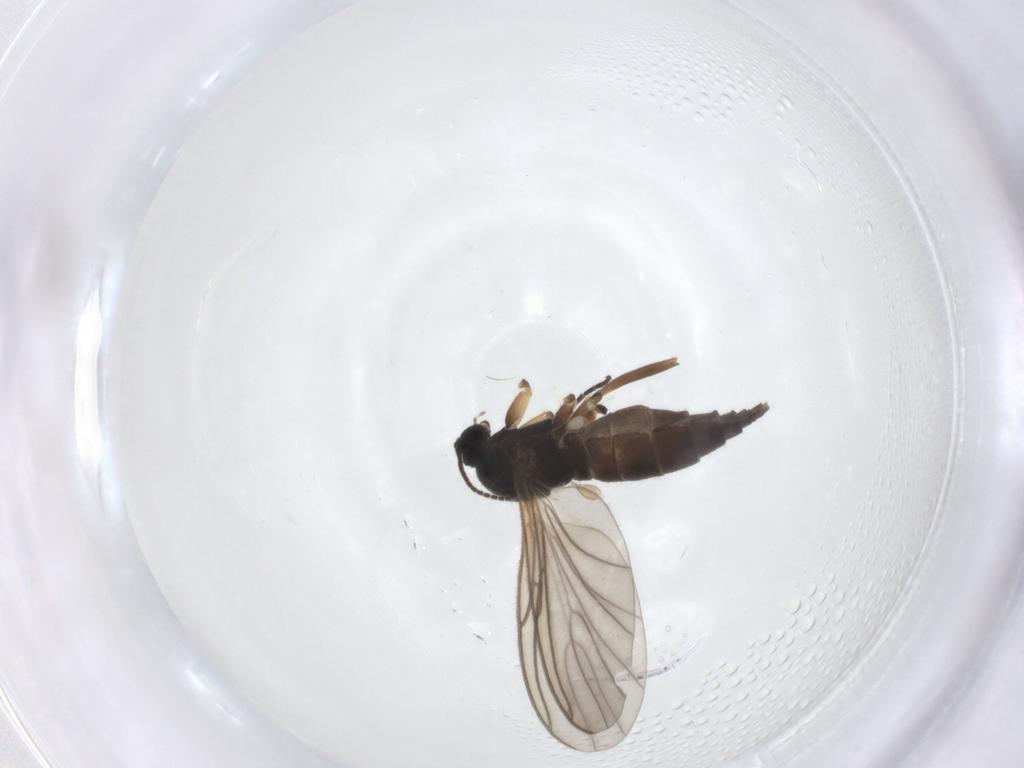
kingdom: Animalia
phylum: Arthropoda
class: Insecta
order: Diptera
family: Sciaridae
